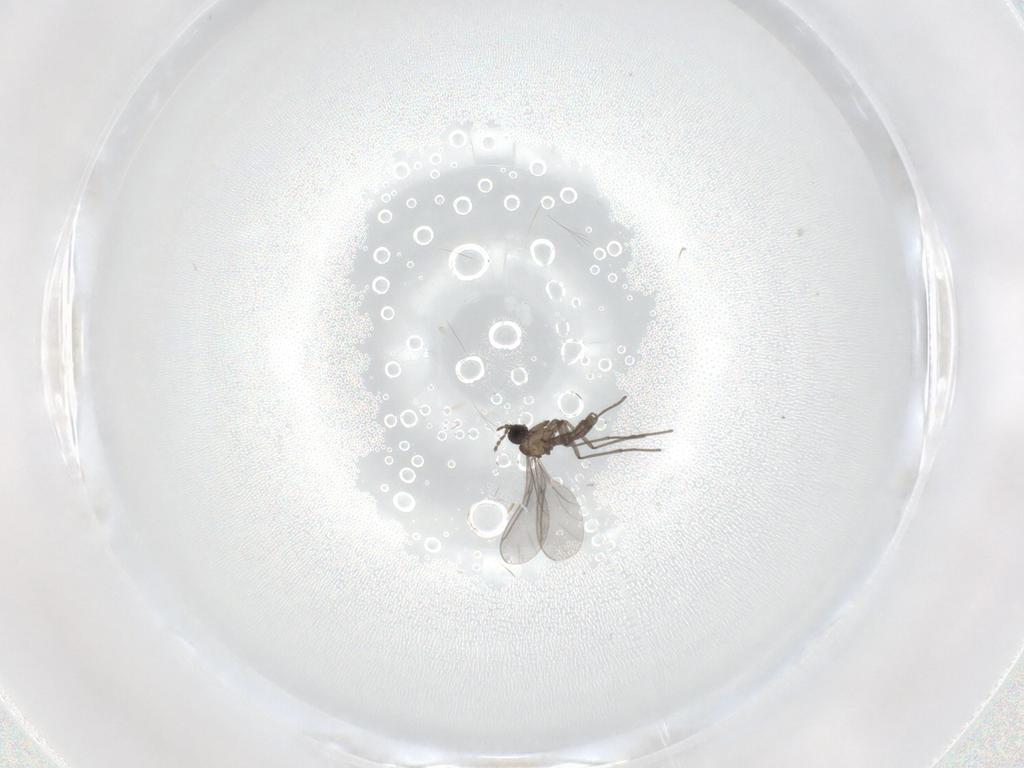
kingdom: Animalia
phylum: Arthropoda
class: Insecta
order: Diptera
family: Sciaridae
